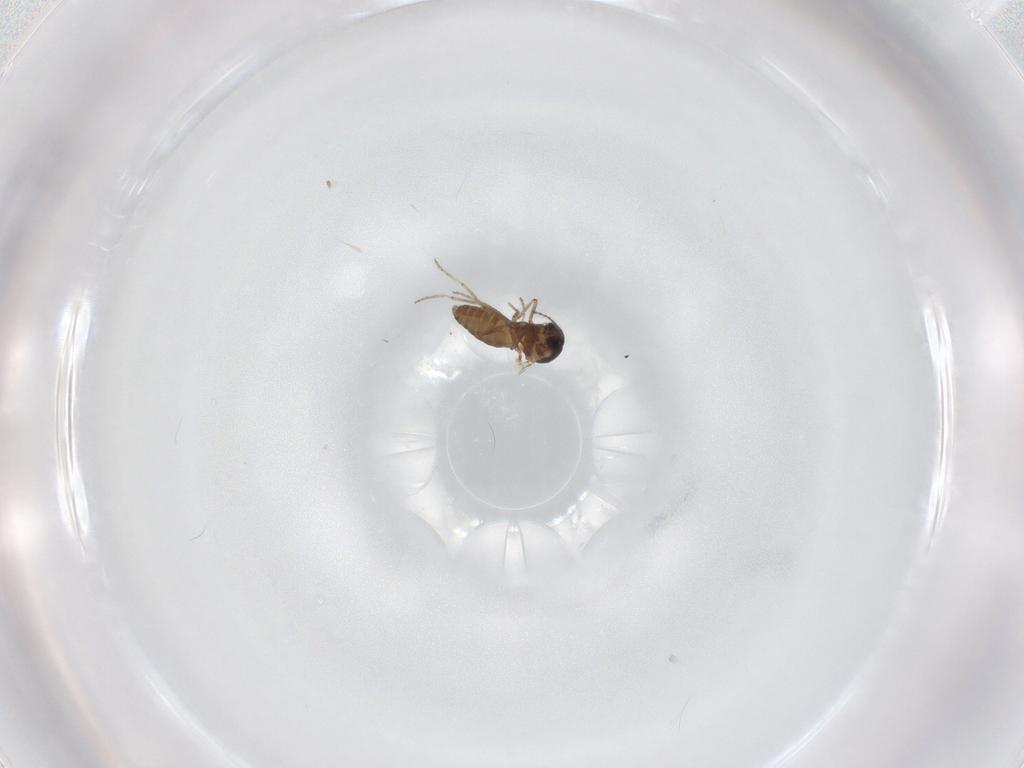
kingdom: Animalia
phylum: Arthropoda
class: Insecta
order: Diptera
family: Ceratopogonidae
